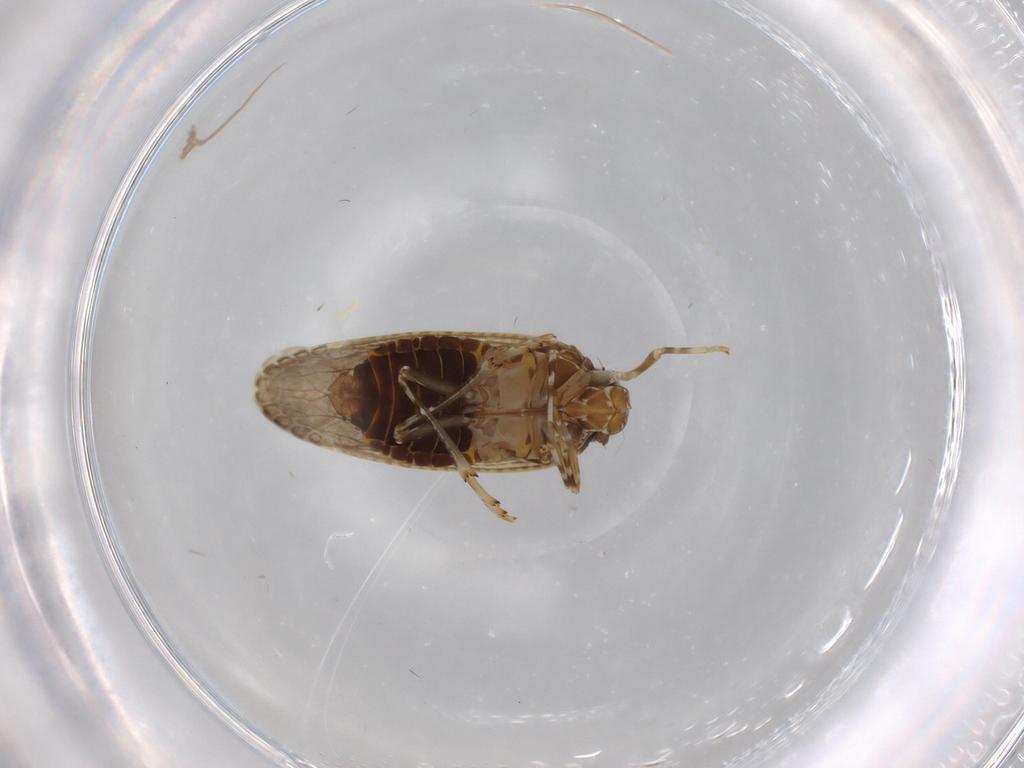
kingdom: Animalia
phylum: Arthropoda
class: Insecta
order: Hemiptera
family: Achilidae
